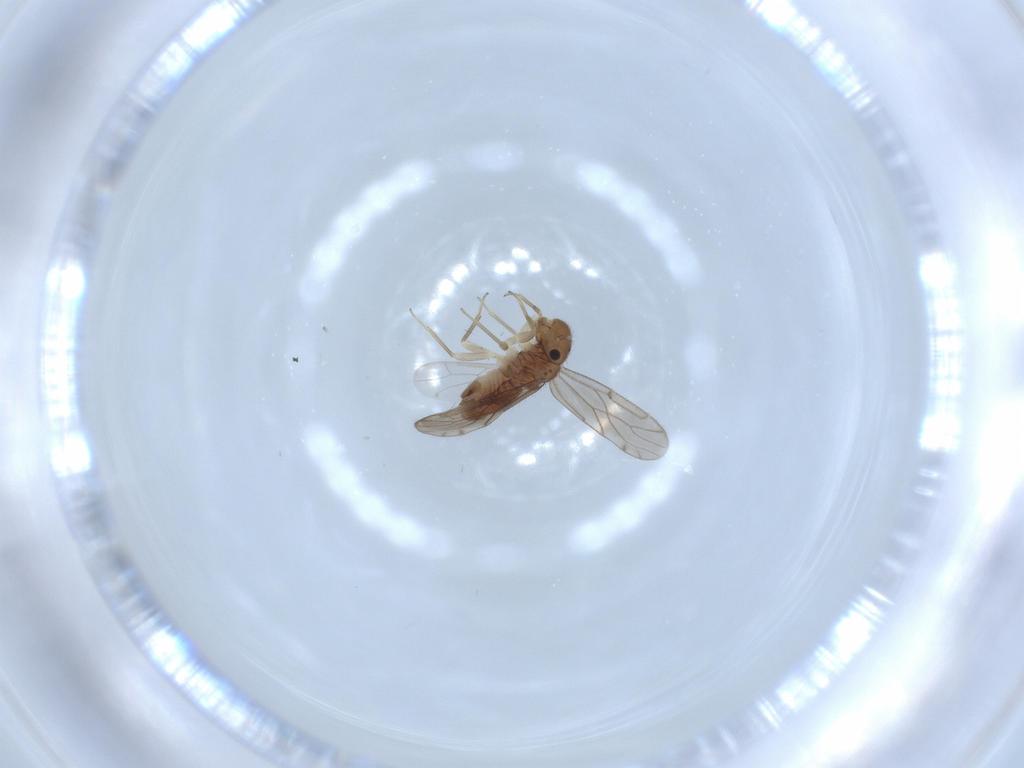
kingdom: Animalia
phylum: Arthropoda
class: Insecta
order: Psocodea
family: Ectopsocidae
